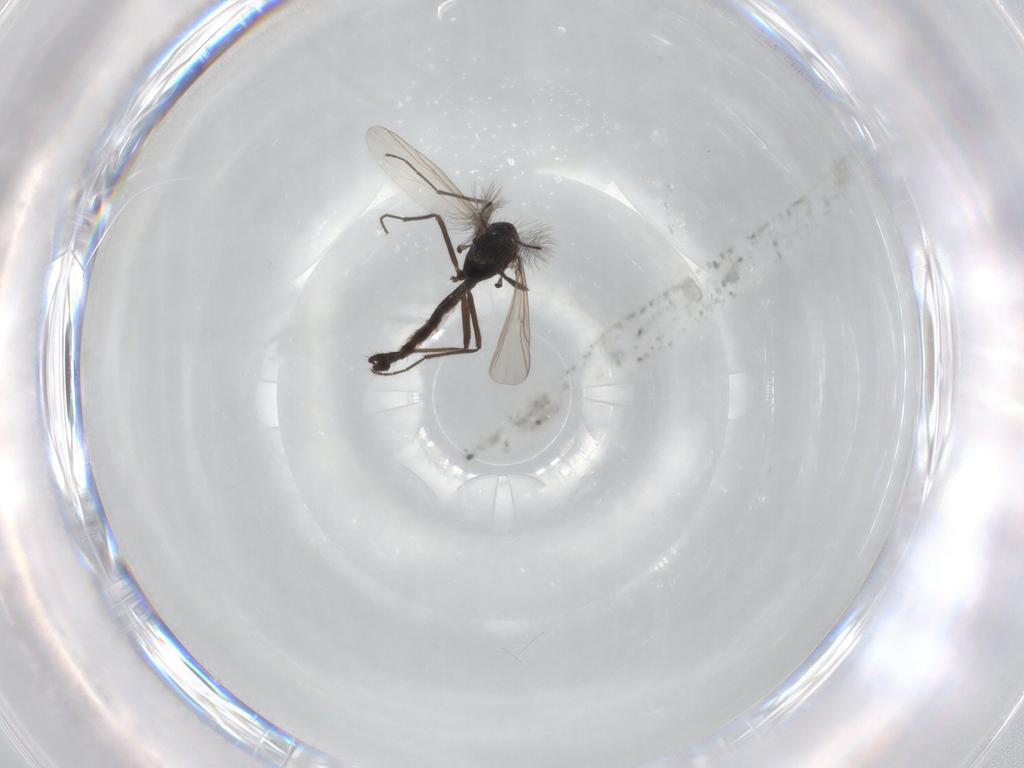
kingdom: Animalia
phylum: Arthropoda
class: Insecta
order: Diptera
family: Chironomidae
